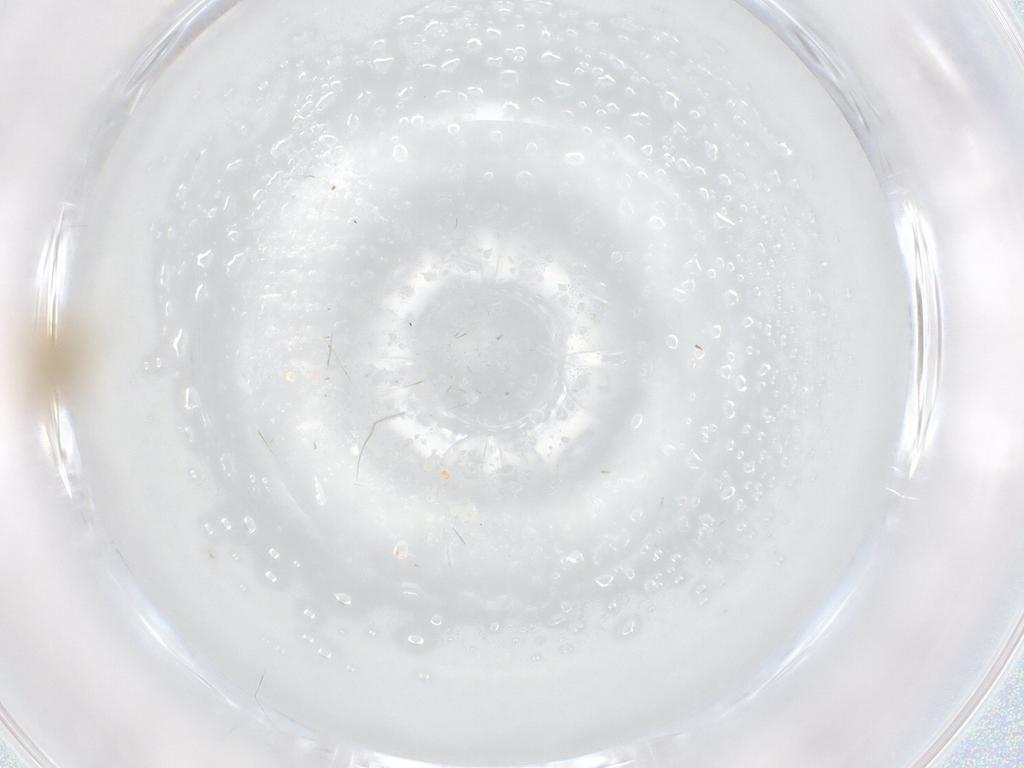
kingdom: Animalia
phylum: Arthropoda
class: Insecta
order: Diptera
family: Chironomidae
